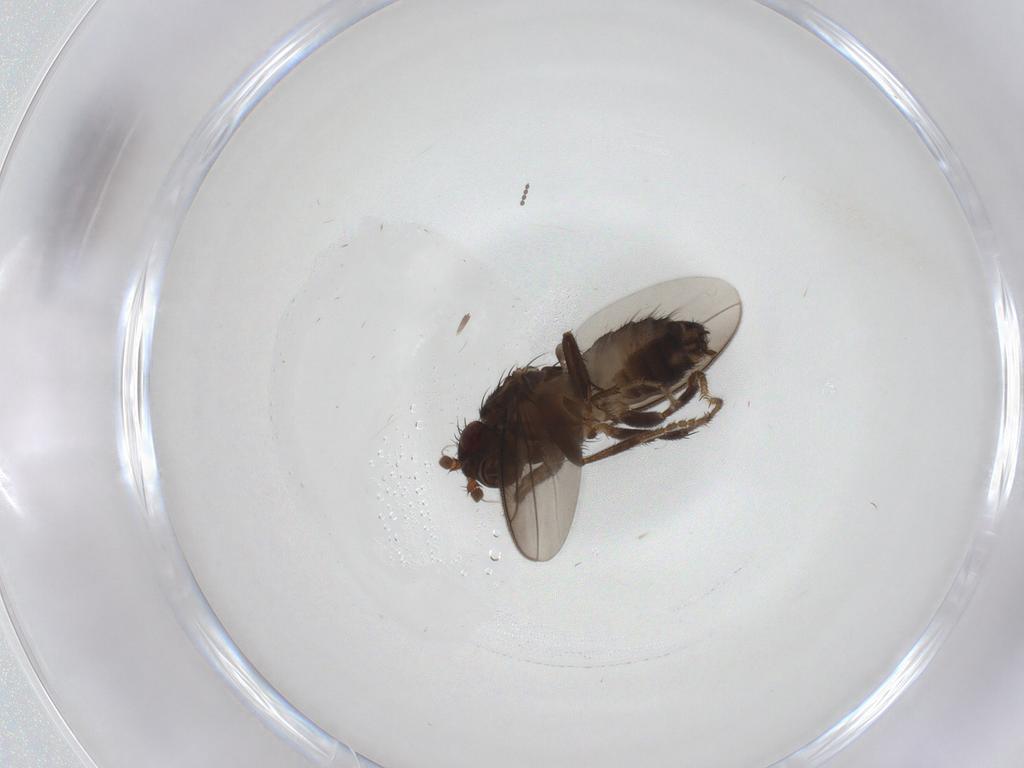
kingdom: Animalia
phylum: Arthropoda
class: Insecta
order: Diptera
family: Sphaeroceridae
